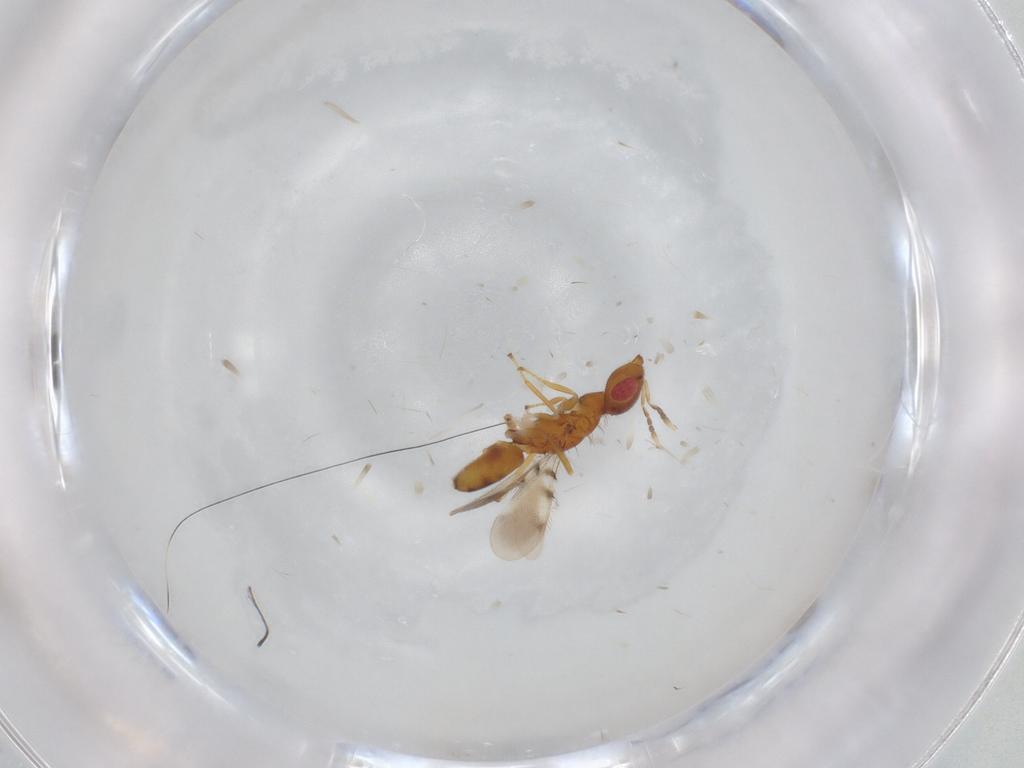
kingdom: Animalia
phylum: Arthropoda
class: Insecta
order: Hymenoptera
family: Eulophidae
